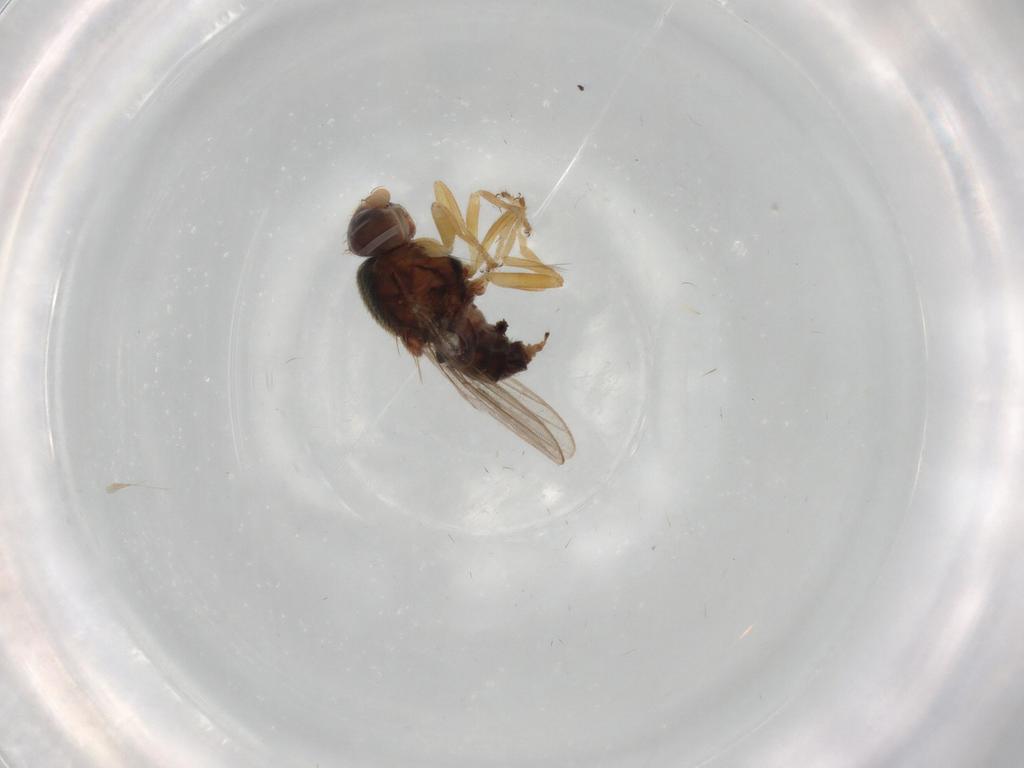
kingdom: Animalia
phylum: Arthropoda
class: Insecta
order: Diptera
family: Chloropidae
